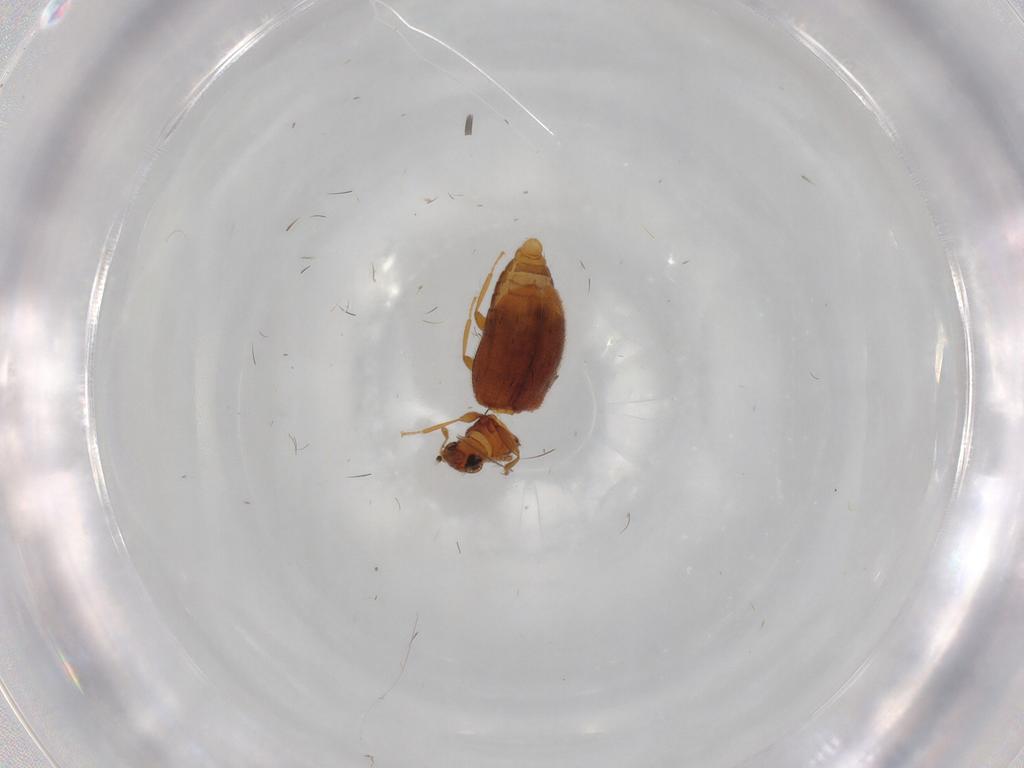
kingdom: Animalia
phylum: Arthropoda
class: Insecta
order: Coleoptera
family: Latridiidae
